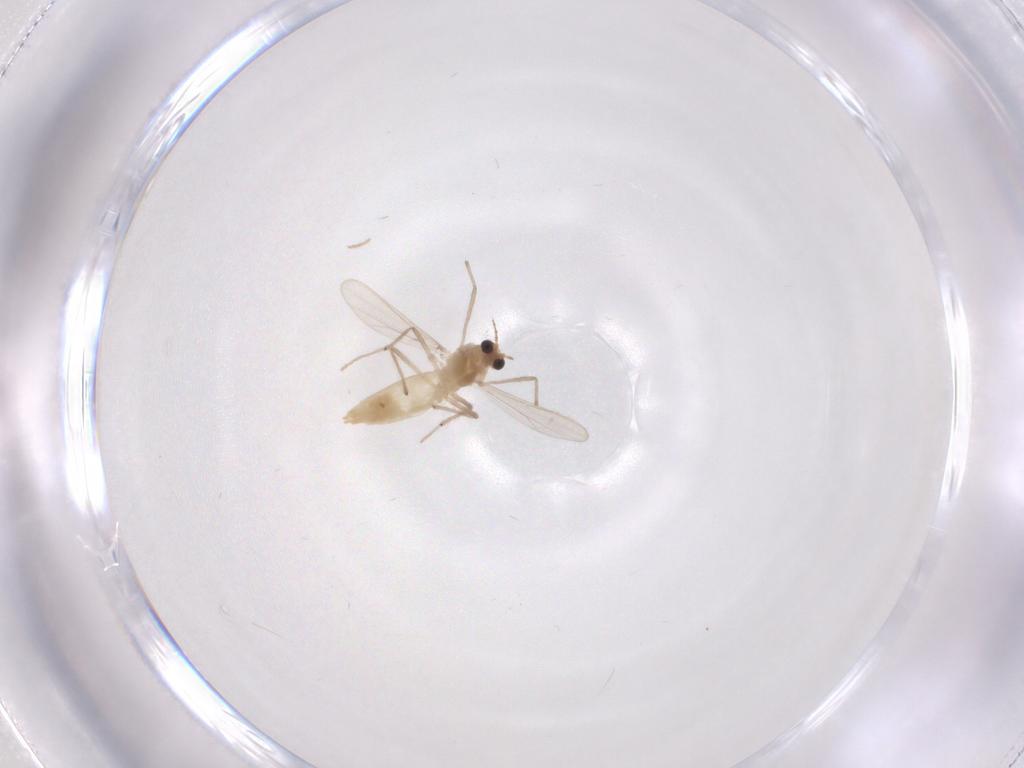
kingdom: Animalia
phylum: Arthropoda
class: Insecta
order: Diptera
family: Chironomidae
